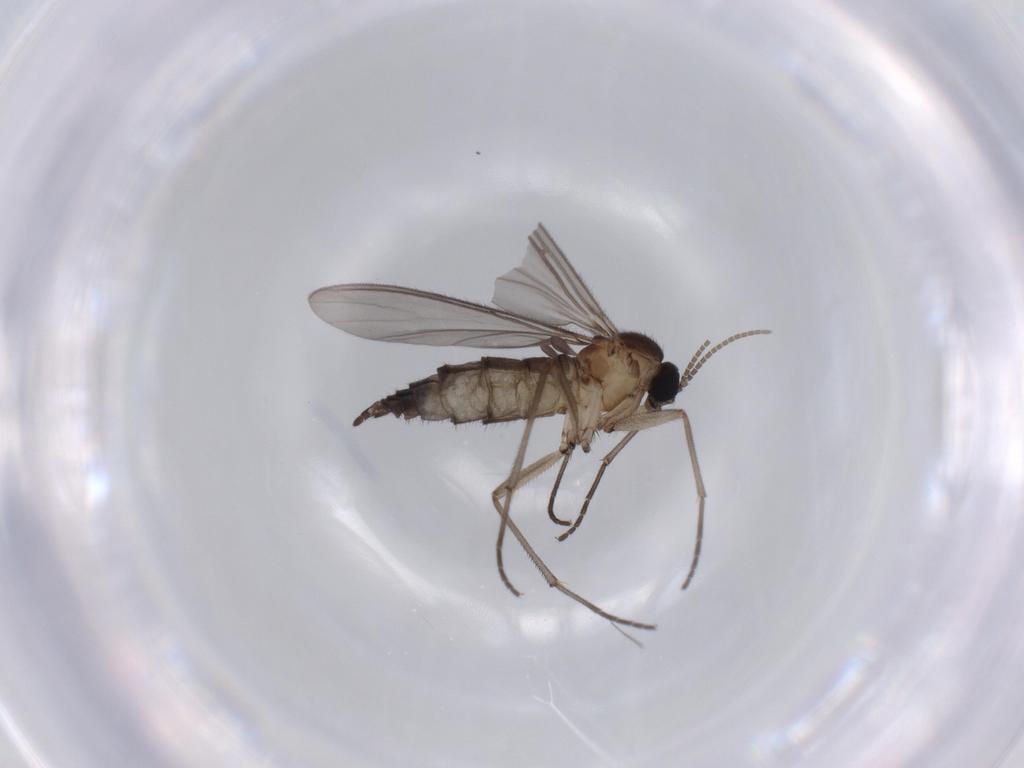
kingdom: Animalia
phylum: Arthropoda
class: Insecta
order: Diptera
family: Sciaridae
